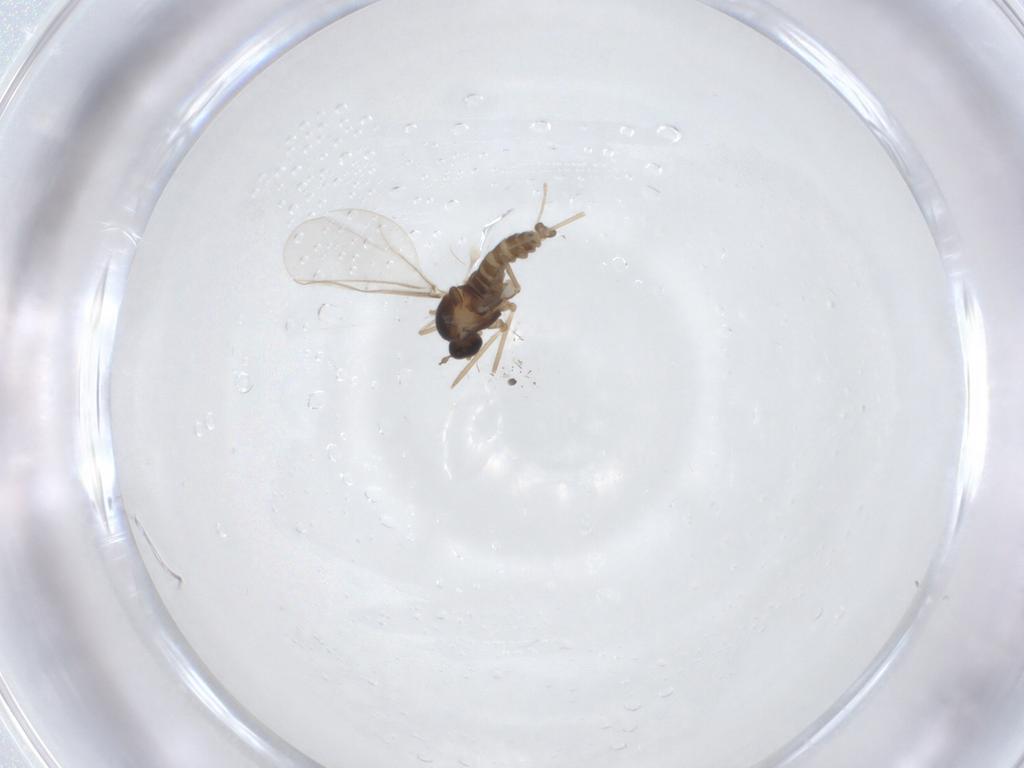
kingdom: Animalia
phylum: Arthropoda
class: Insecta
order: Diptera
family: Cecidomyiidae
